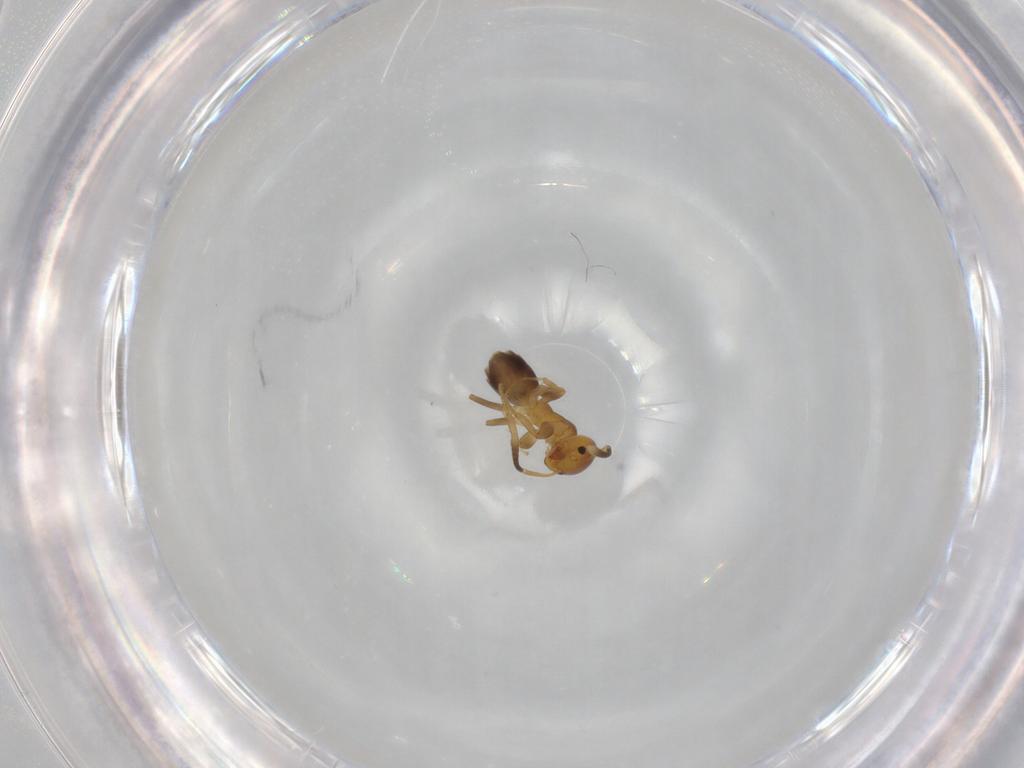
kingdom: Animalia
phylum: Arthropoda
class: Insecta
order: Hymenoptera
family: Formicidae
